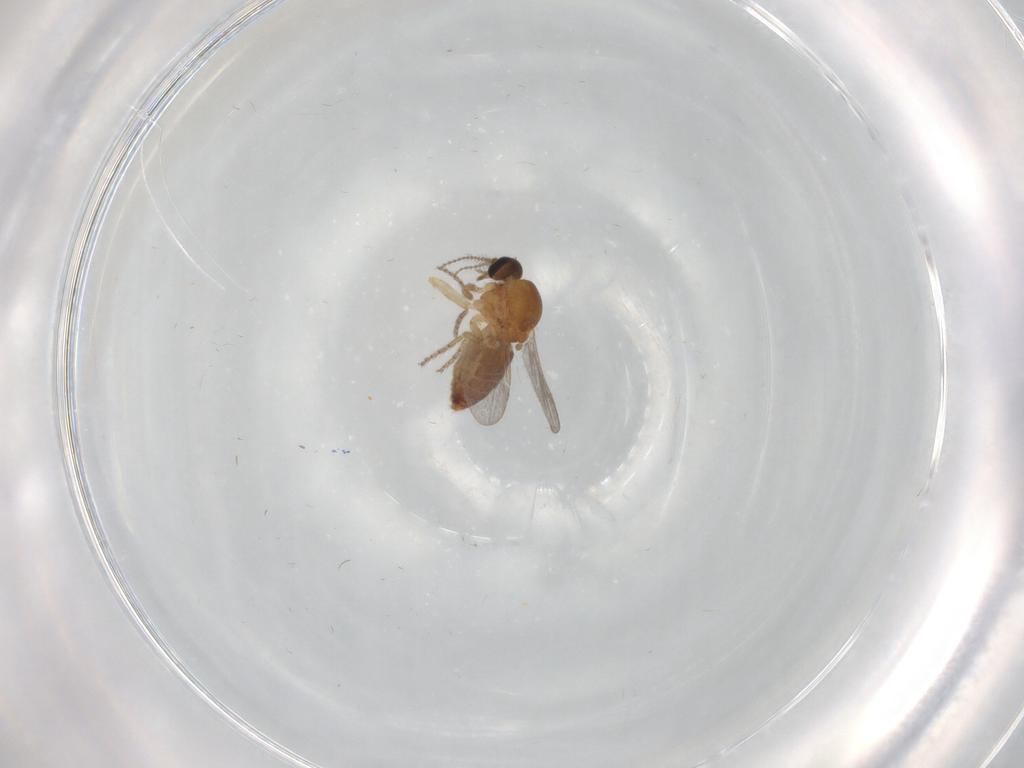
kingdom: Animalia
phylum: Arthropoda
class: Insecta
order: Diptera
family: Ceratopogonidae
